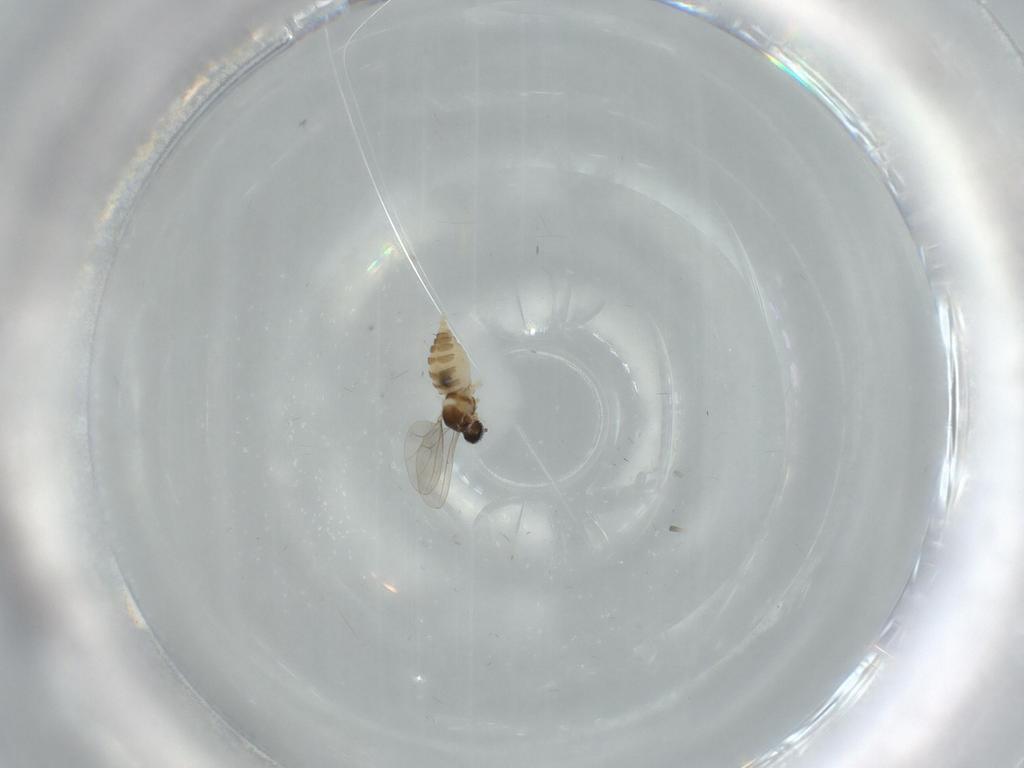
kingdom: Animalia
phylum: Arthropoda
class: Insecta
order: Diptera
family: Cecidomyiidae
